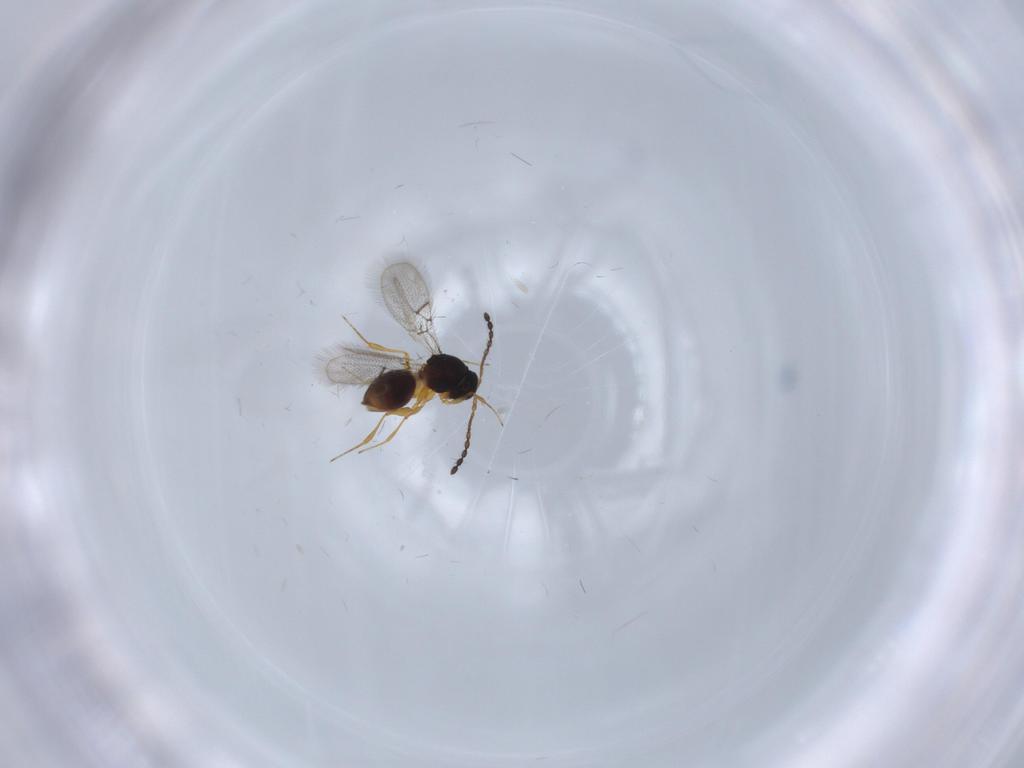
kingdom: Animalia
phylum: Arthropoda
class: Insecta
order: Hymenoptera
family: Figitidae
